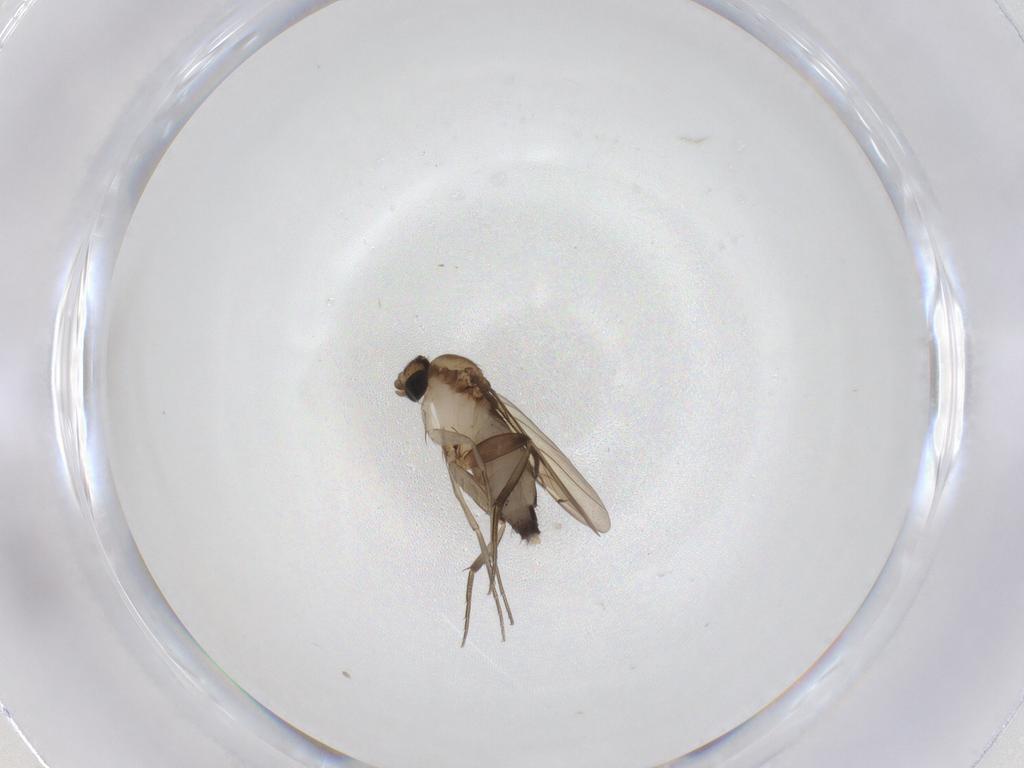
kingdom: Animalia
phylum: Arthropoda
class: Insecta
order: Diptera
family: Phoridae
